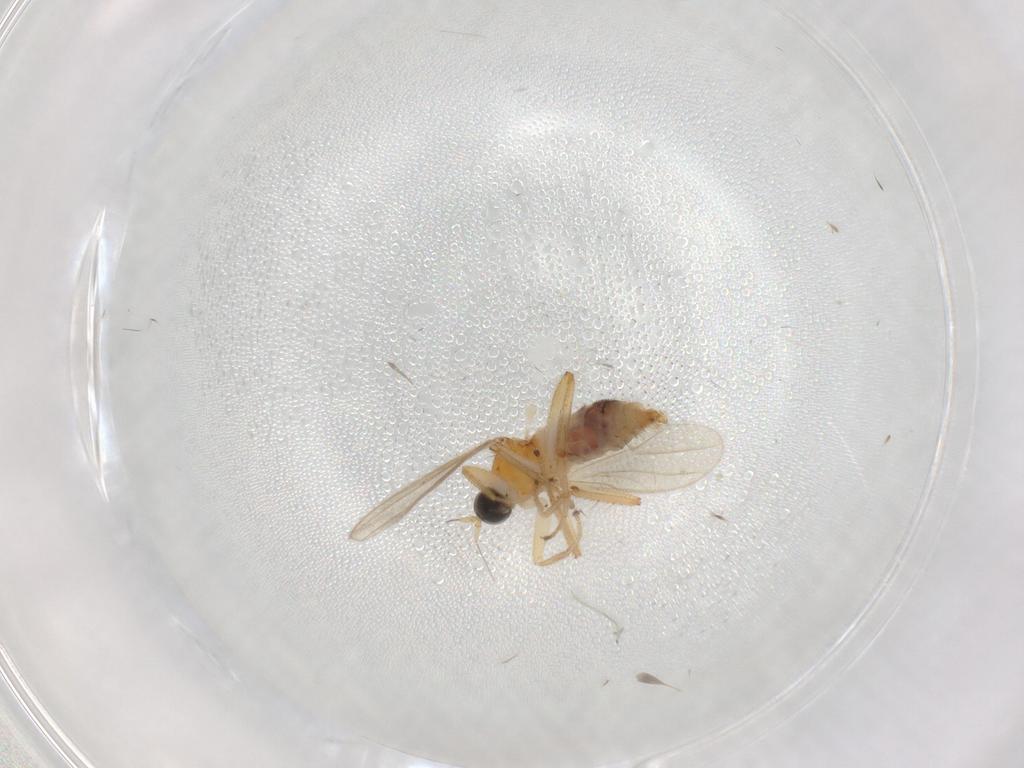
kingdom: Animalia
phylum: Arthropoda
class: Insecta
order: Diptera
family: Hybotidae
